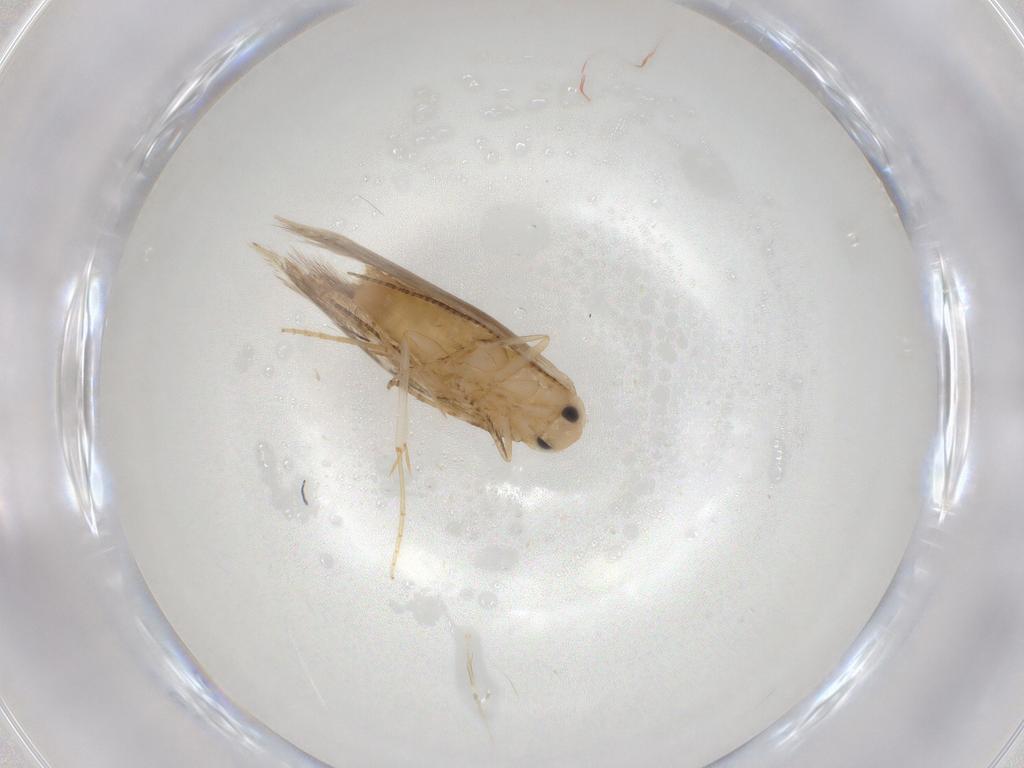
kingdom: Animalia
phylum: Arthropoda
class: Insecta
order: Lepidoptera
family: Bucculatricidae
